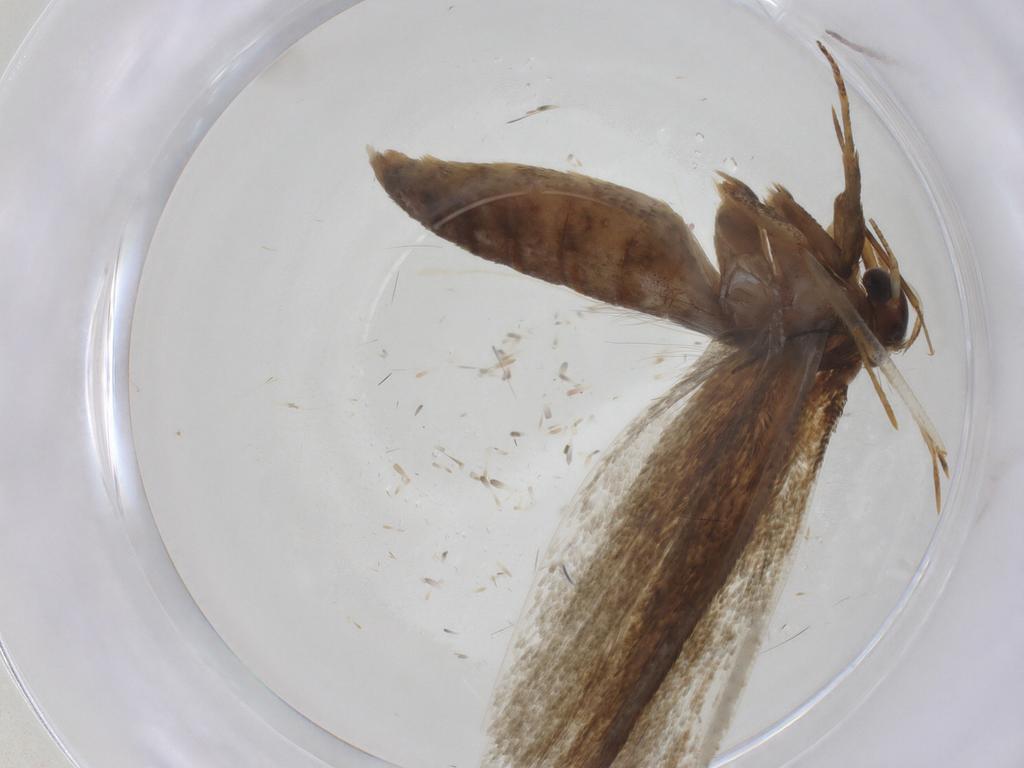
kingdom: Animalia
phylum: Arthropoda
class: Insecta
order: Lepidoptera
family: Blastobasidae
